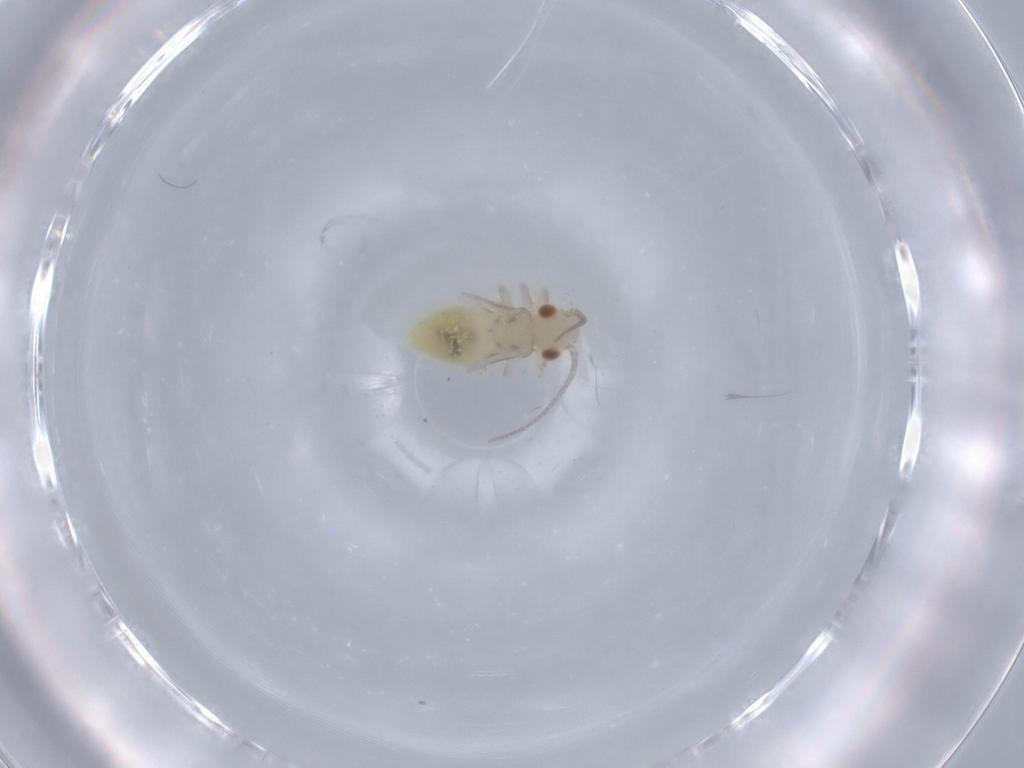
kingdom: Animalia
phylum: Arthropoda
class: Insecta
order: Psocodea
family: Caeciliusidae
